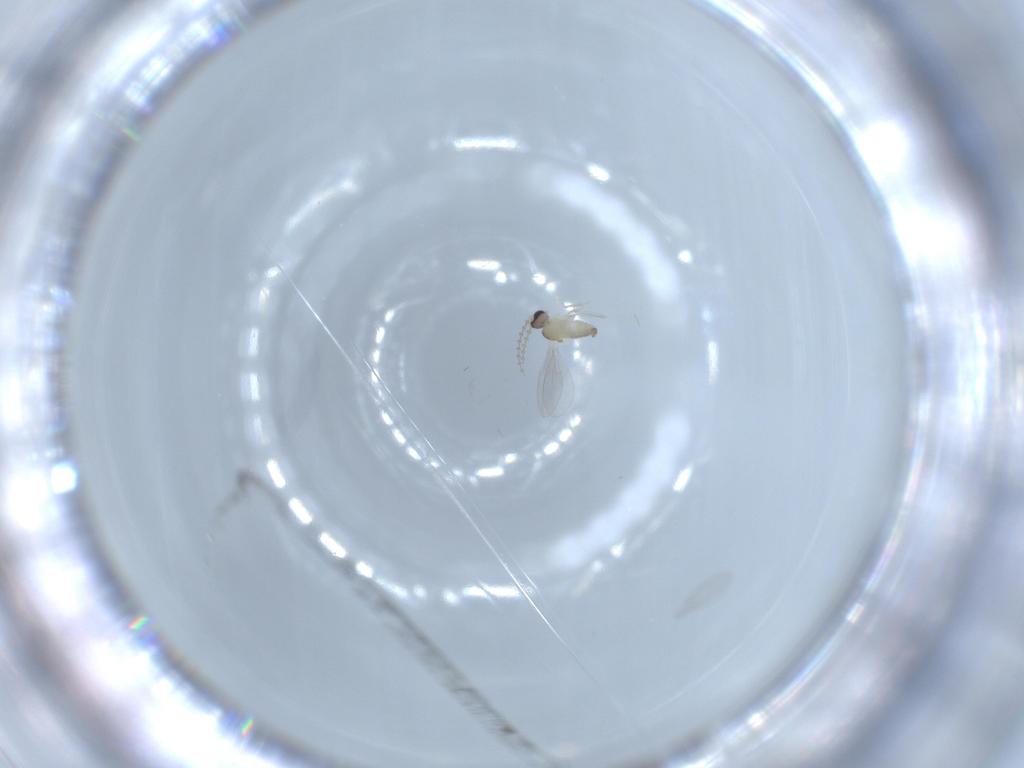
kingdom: Animalia
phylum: Arthropoda
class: Insecta
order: Diptera
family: Cecidomyiidae
